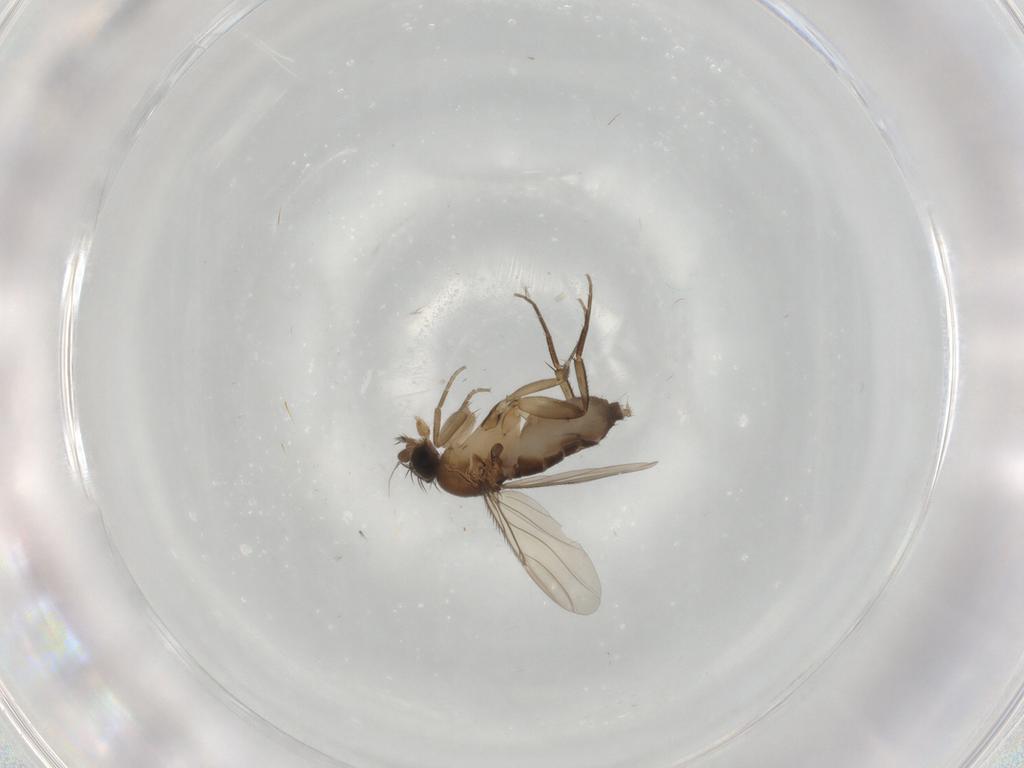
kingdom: Animalia
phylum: Arthropoda
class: Insecta
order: Diptera
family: Phoridae
